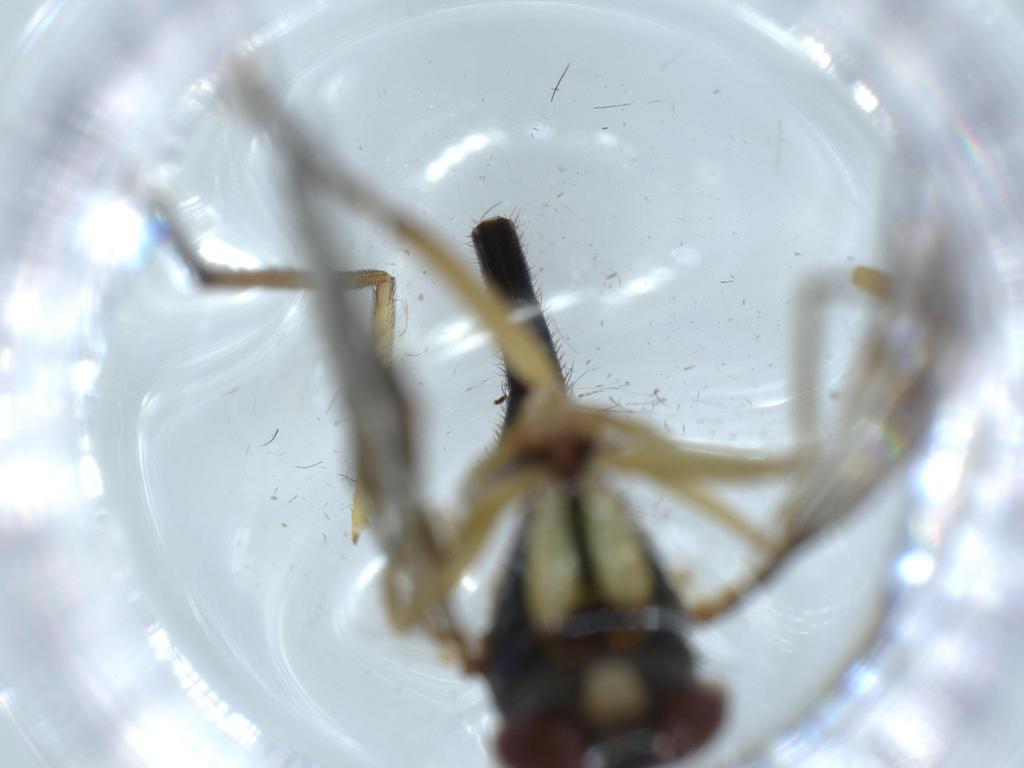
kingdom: Animalia
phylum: Arthropoda
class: Insecta
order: Diptera
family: Dolichopodidae
